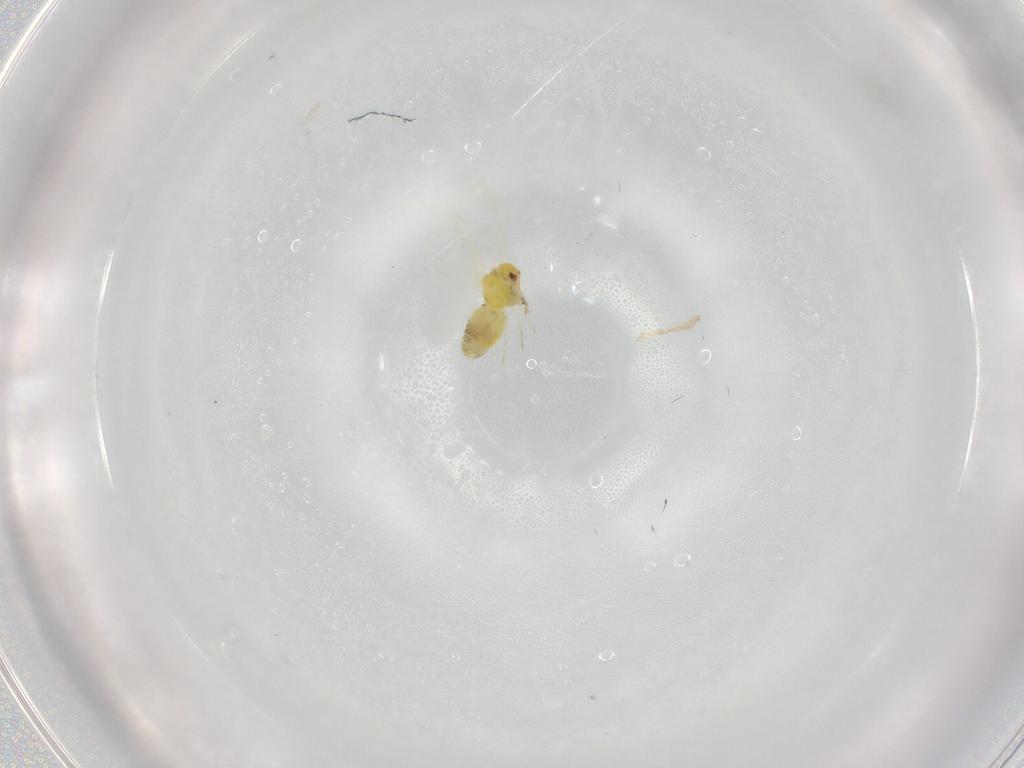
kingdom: Animalia
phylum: Arthropoda
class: Insecta
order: Hemiptera
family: Aleyrodidae
